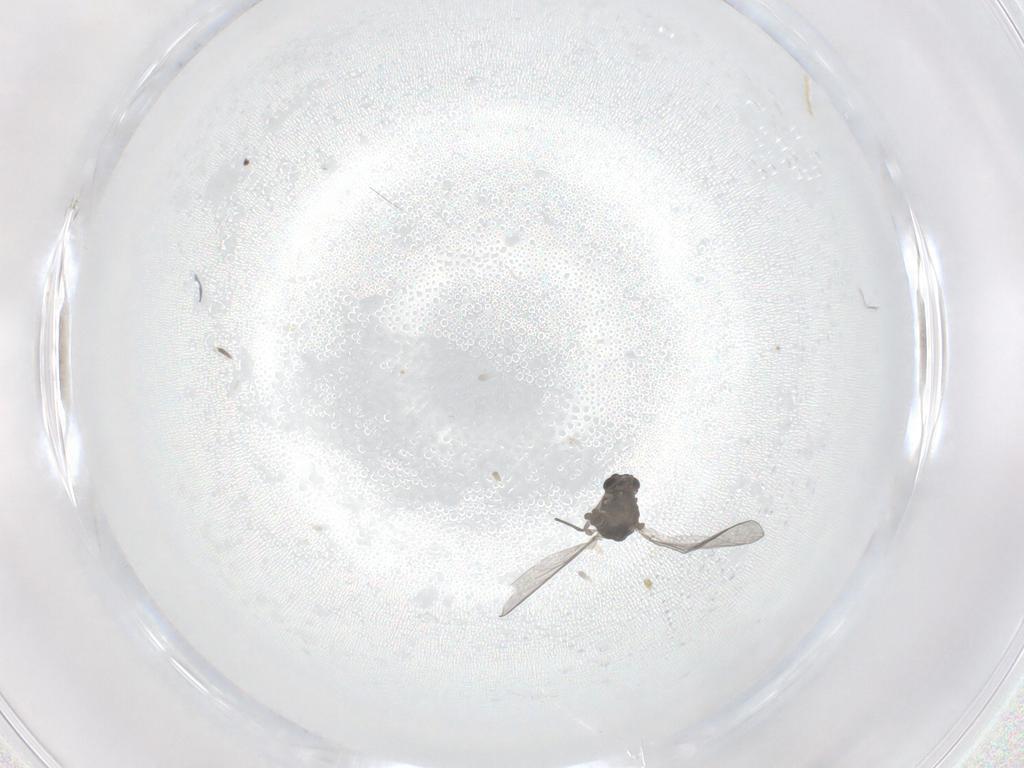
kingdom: Animalia
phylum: Arthropoda
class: Insecta
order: Diptera
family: Chironomidae
